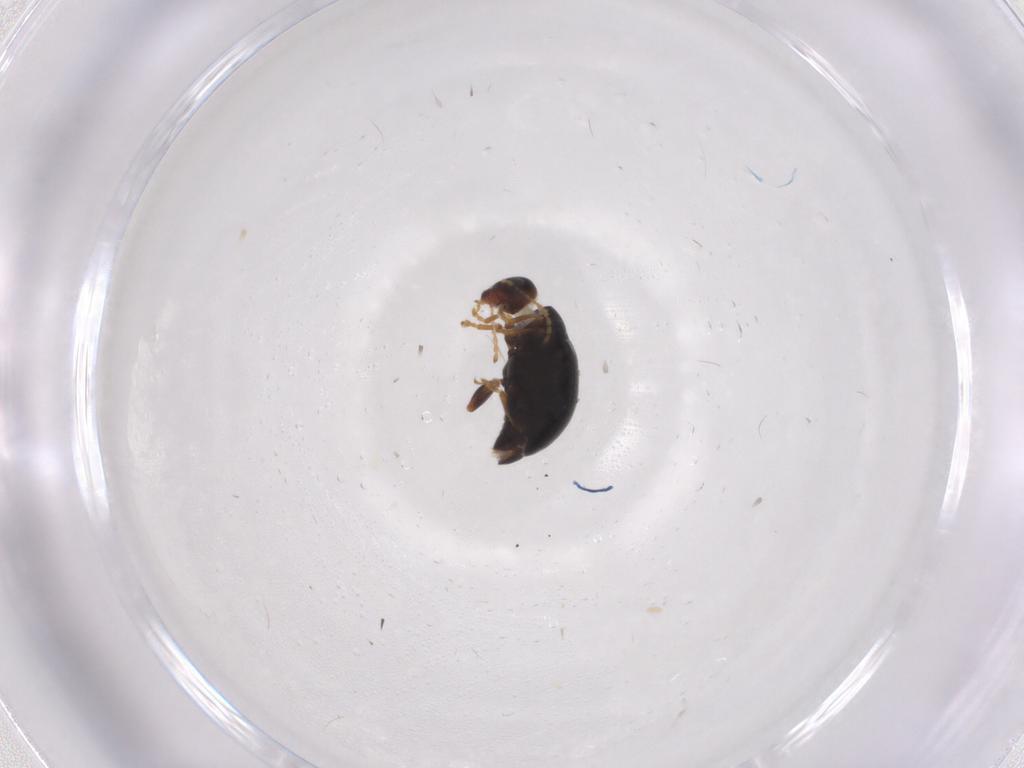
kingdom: Animalia
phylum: Arthropoda
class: Insecta
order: Coleoptera
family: Chrysomelidae
